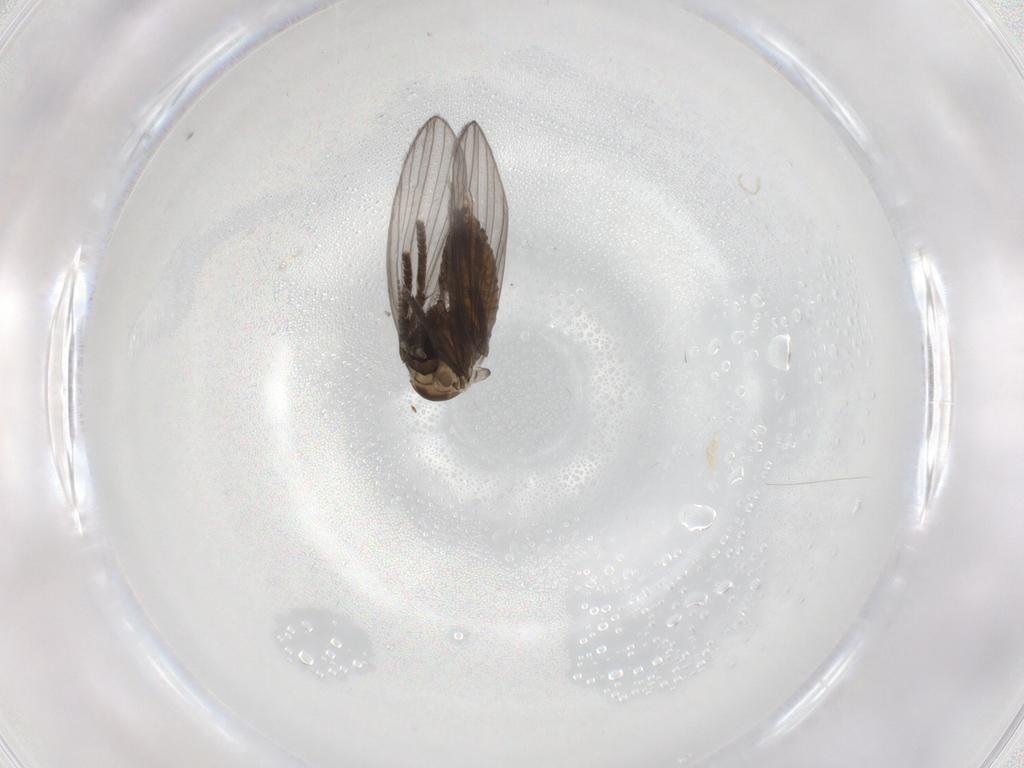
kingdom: Animalia
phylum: Arthropoda
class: Insecta
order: Diptera
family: Psychodidae
